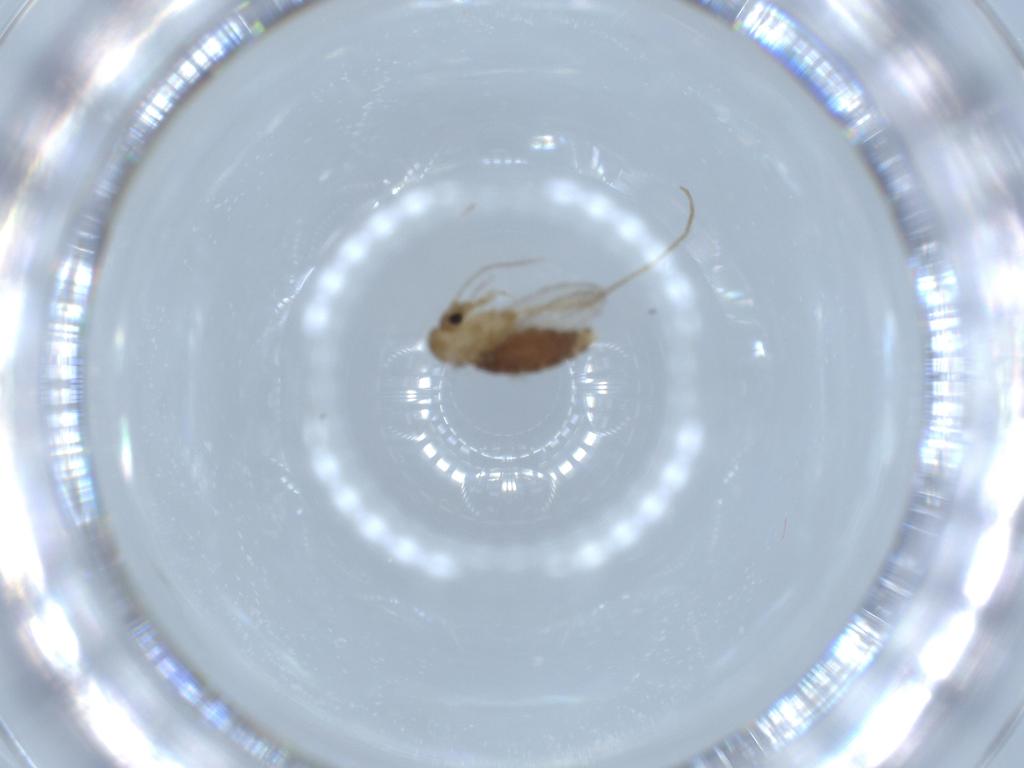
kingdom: Animalia
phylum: Arthropoda
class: Insecta
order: Diptera
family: Psychodidae
